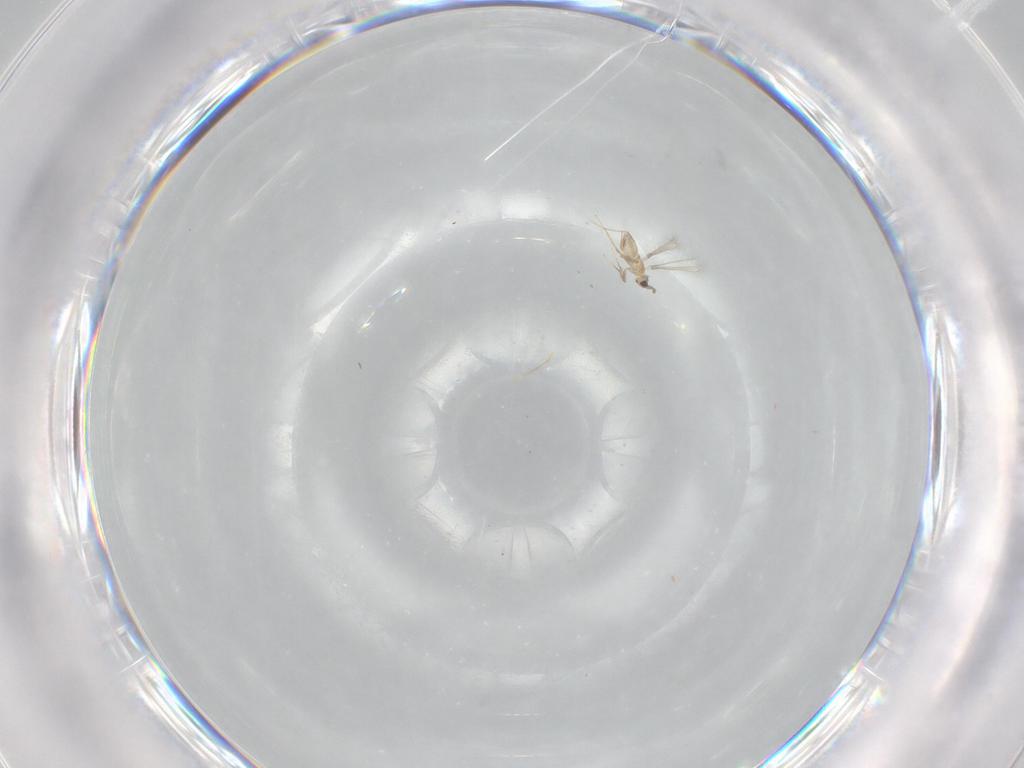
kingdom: Animalia
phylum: Arthropoda
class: Insecta
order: Hymenoptera
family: Mymaridae
